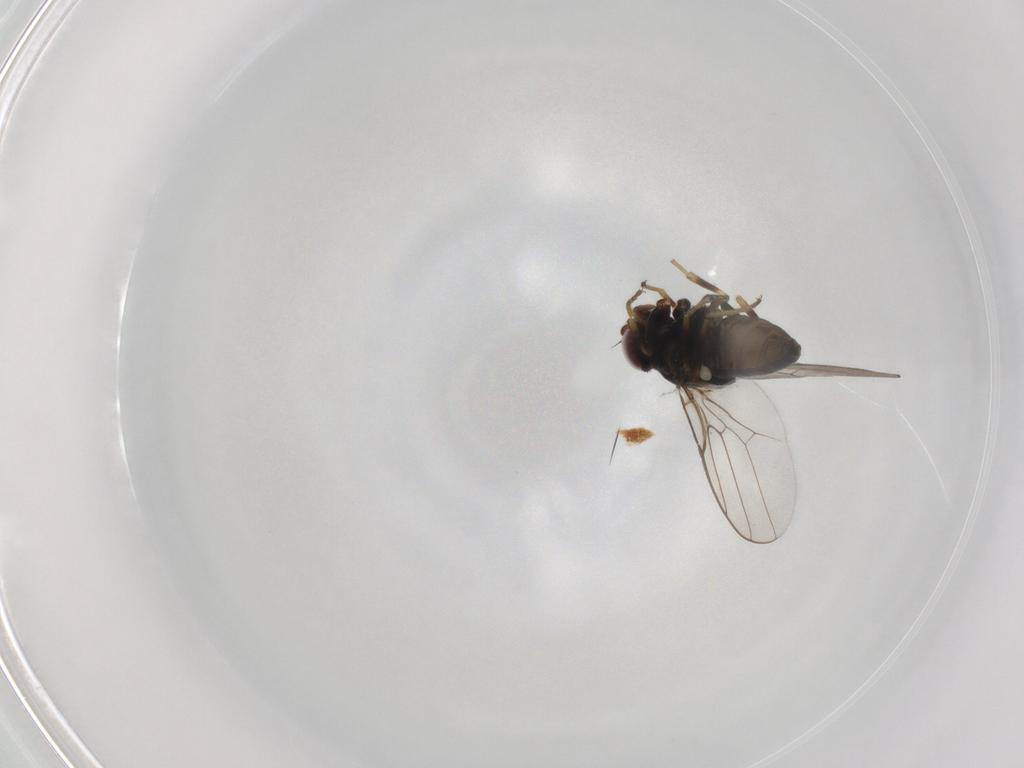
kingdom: Animalia
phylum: Arthropoda
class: Insecta
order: Diptera
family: Chloropidae
